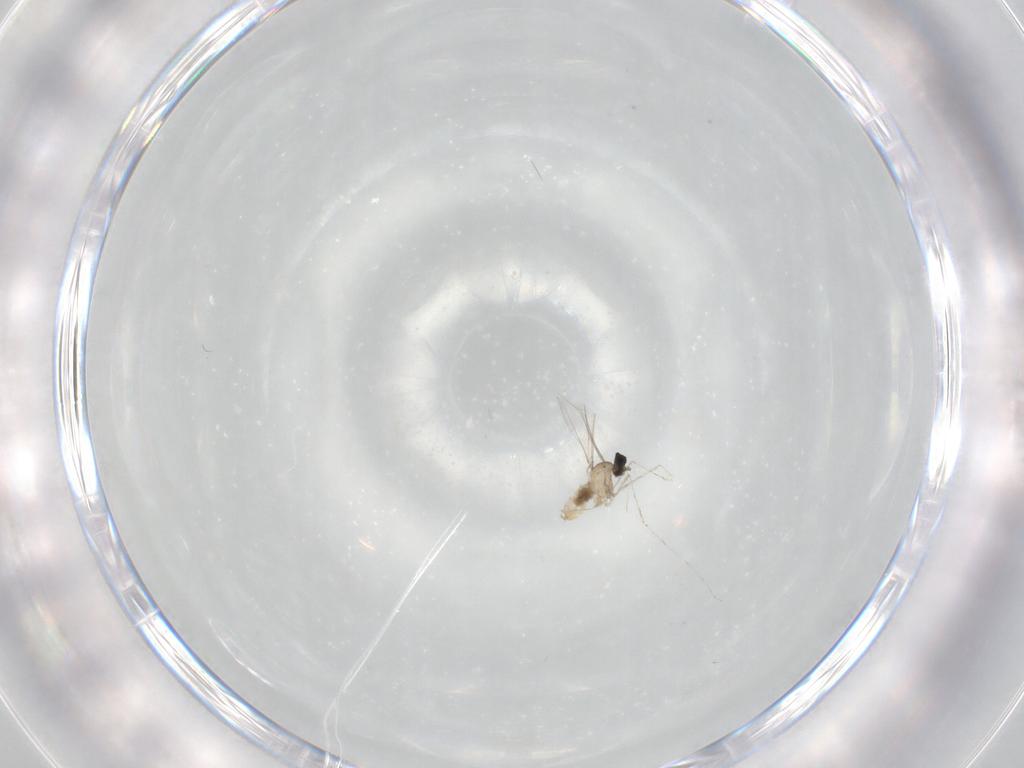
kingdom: Animalia
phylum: Arthropoda
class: Insecta
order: Diptera
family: Cecidomyiidae
